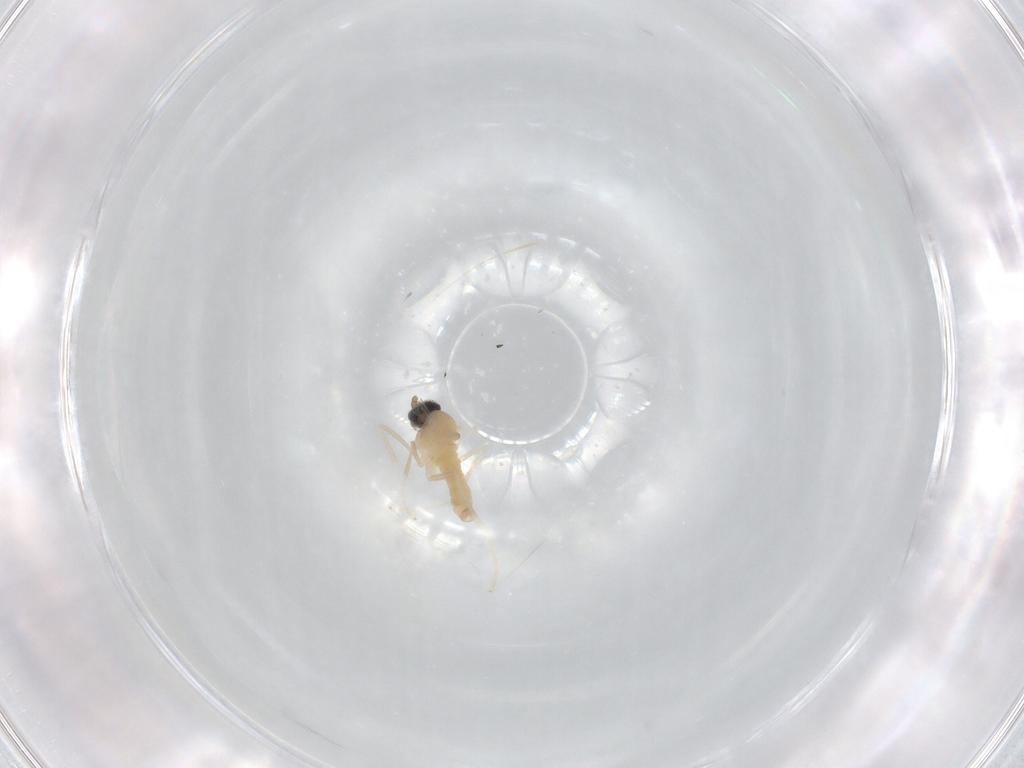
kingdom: Animalia
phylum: Arthropoda
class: Insecta
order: Diptera
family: Cecidomyiidae
